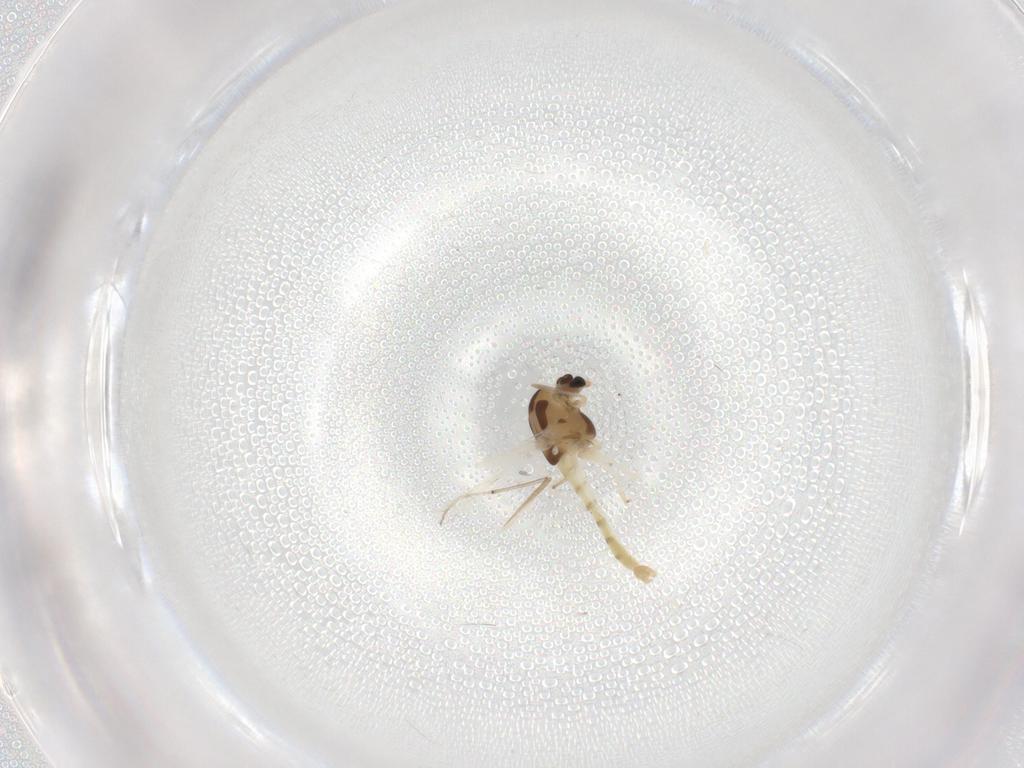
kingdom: Animalia
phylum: Arthropoda
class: Insecta
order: Diptera
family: Chironomidae
